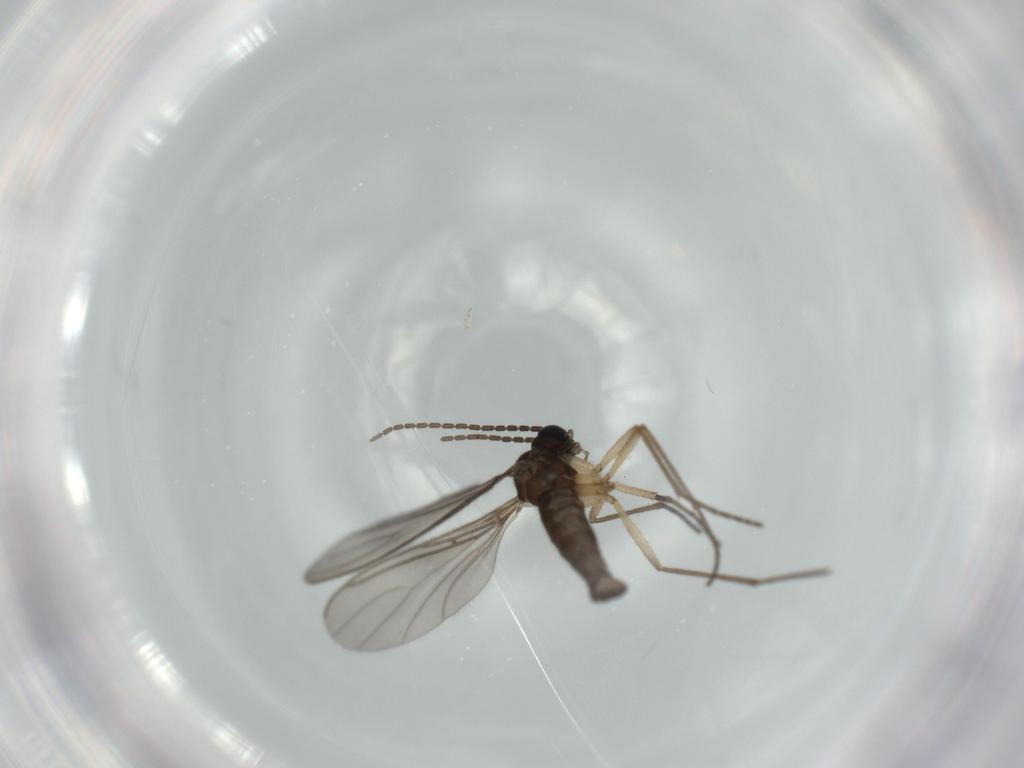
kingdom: Animalia
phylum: Arthropoda
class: Insecta
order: Diptera
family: Sciaridae
